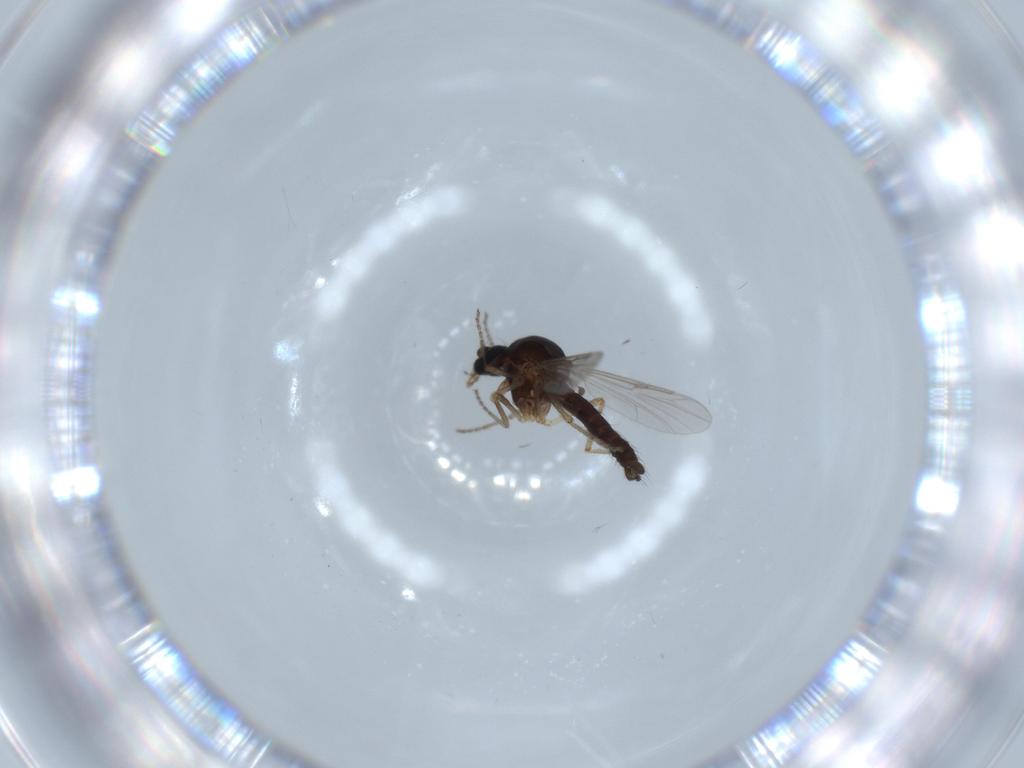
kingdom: Animalia
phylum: Arthropoda
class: Insecta
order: Diptera
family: Ceratopogonidae
